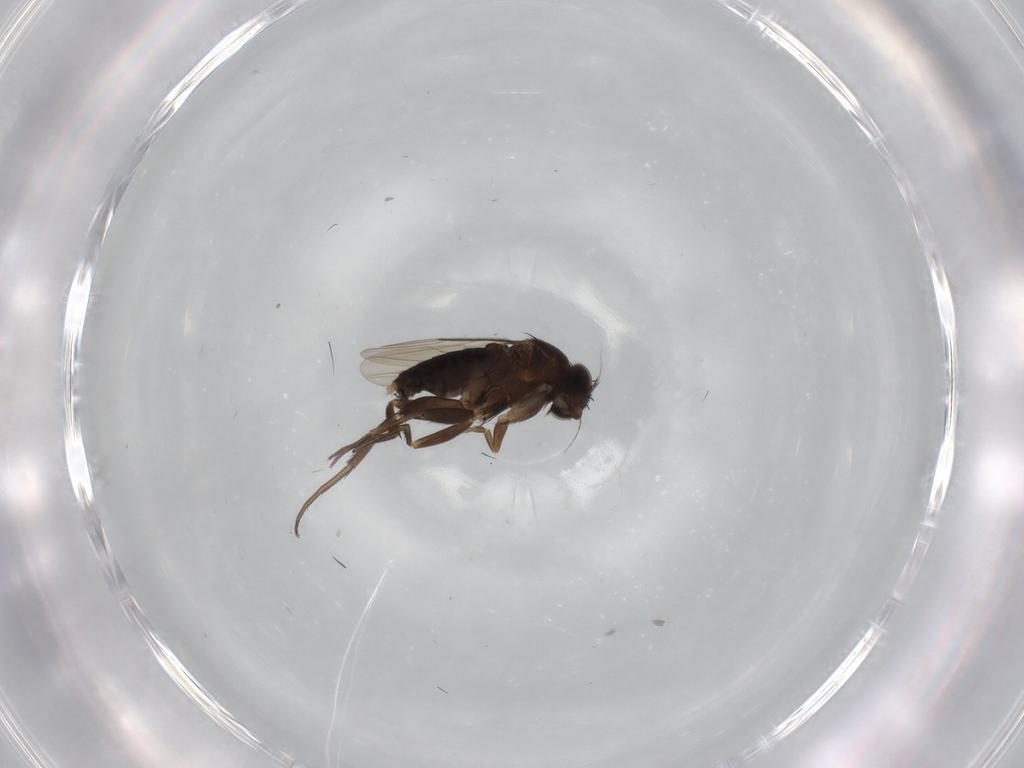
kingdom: Animalia
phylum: Arthropoda
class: Insecta
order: Diptera
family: Phoridae
